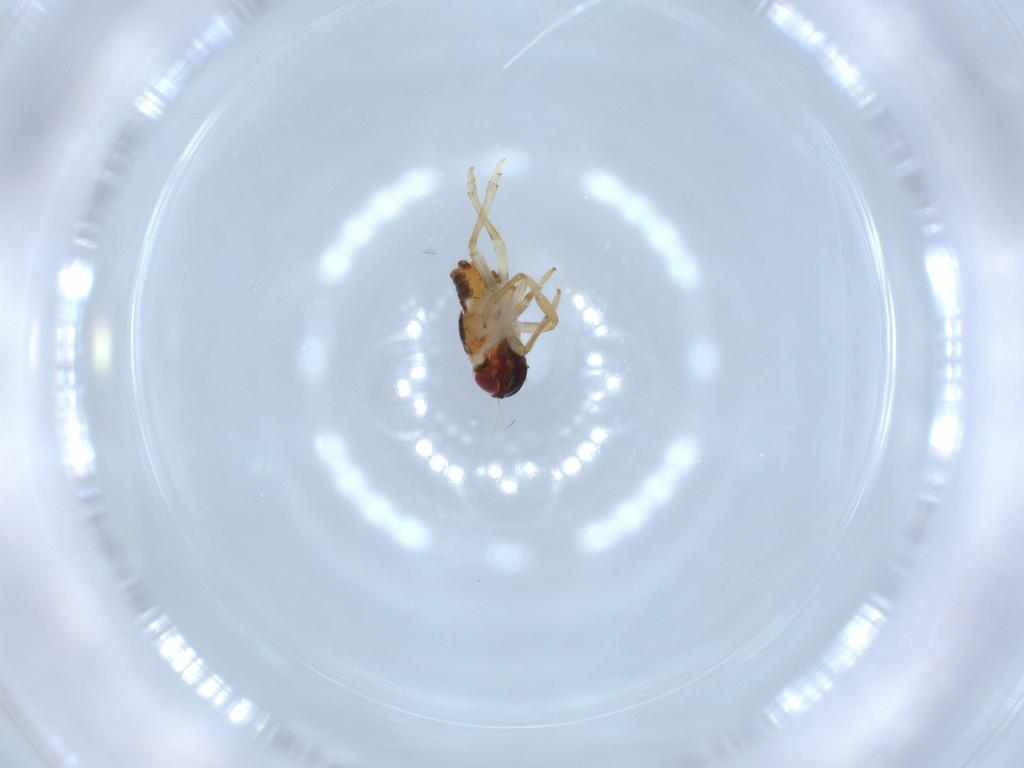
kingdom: Animalia
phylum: Arthropoda
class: Insecta
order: Hemiptera
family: Issidae
